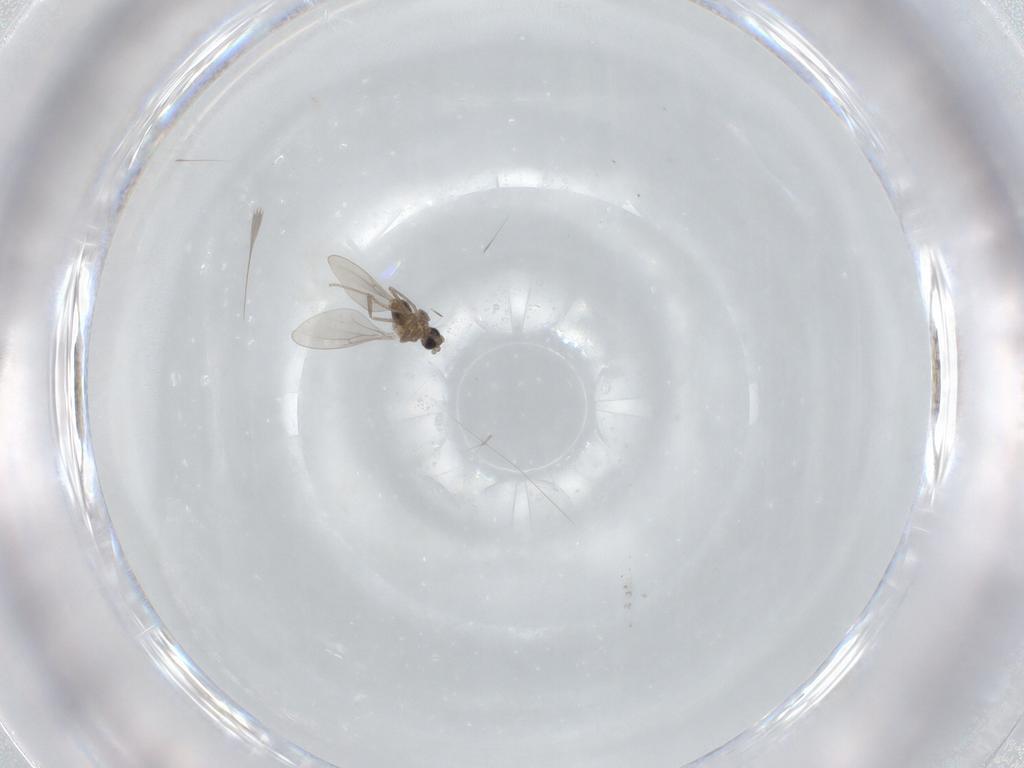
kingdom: Animalia
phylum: Arthropoda
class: Insecta
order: Diptera
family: Cecidomyiidae
